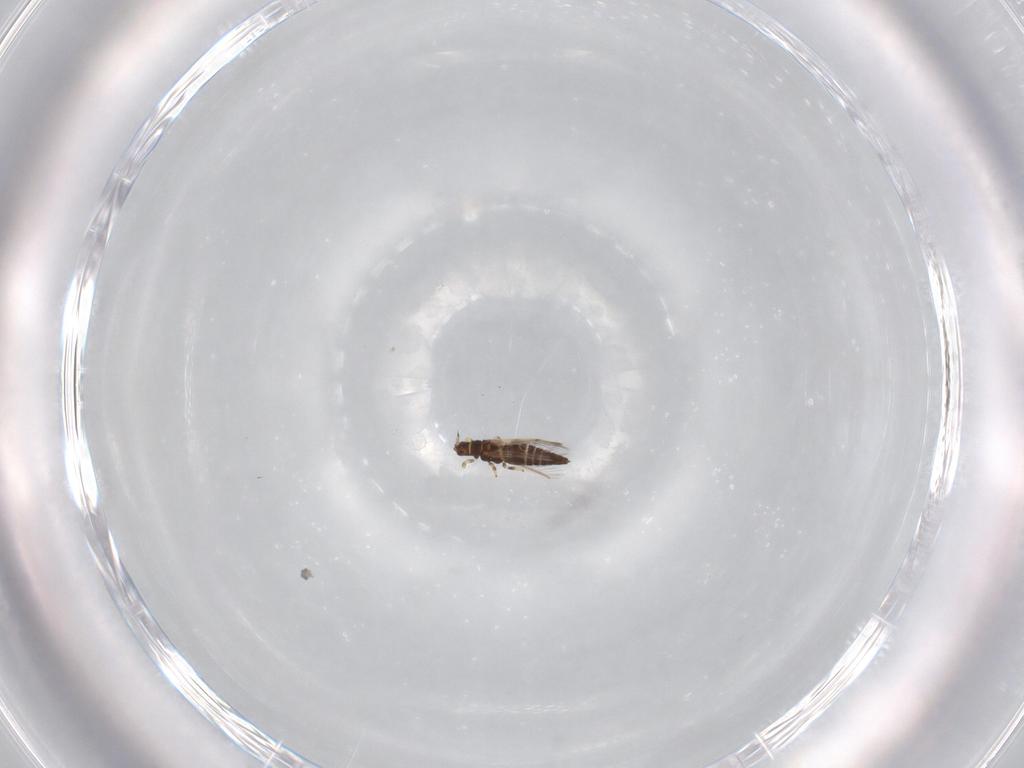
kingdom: Animalia
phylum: Arthropoda
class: Insecta
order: Thysanoptera
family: Thripidae
